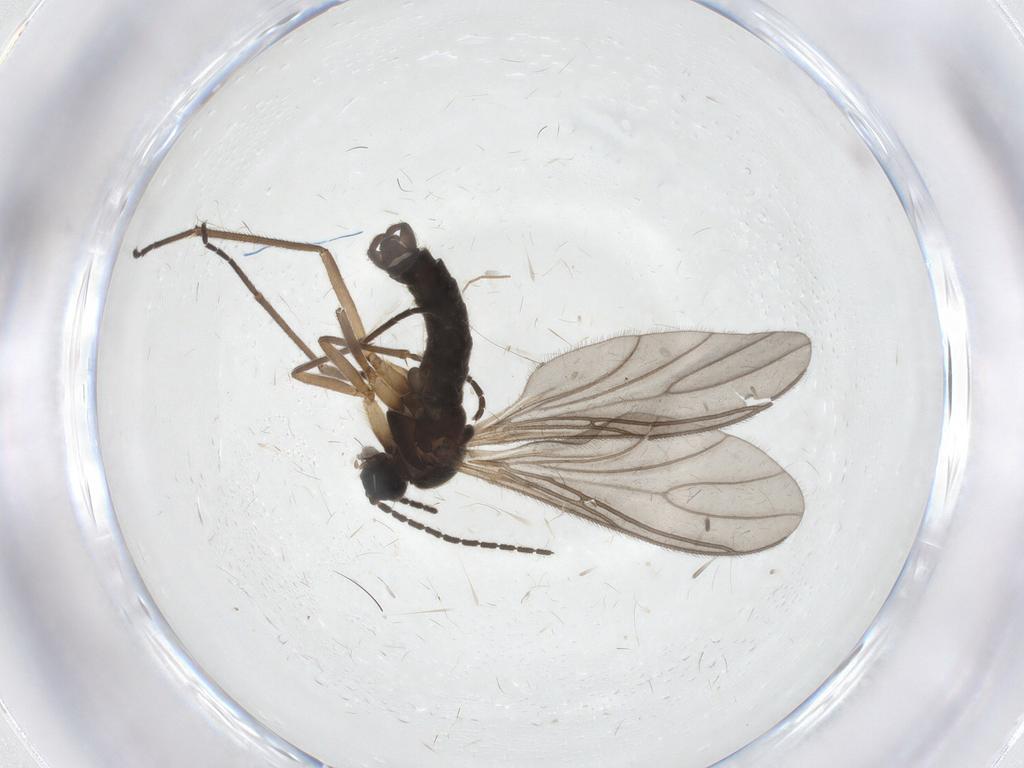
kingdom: Animalia
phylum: Arthropoda
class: Insecta
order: Diptera
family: Chironomidae
